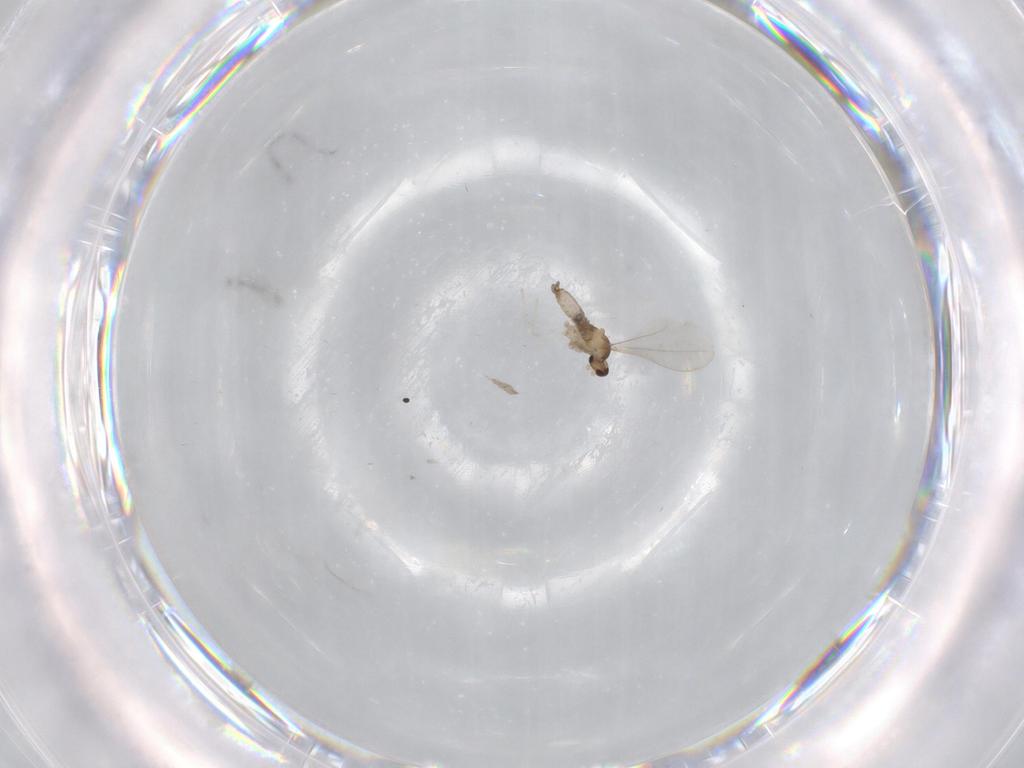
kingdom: Animalia
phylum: Arthropoda
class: Insecta
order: Diptera
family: Cecidomyiidae
